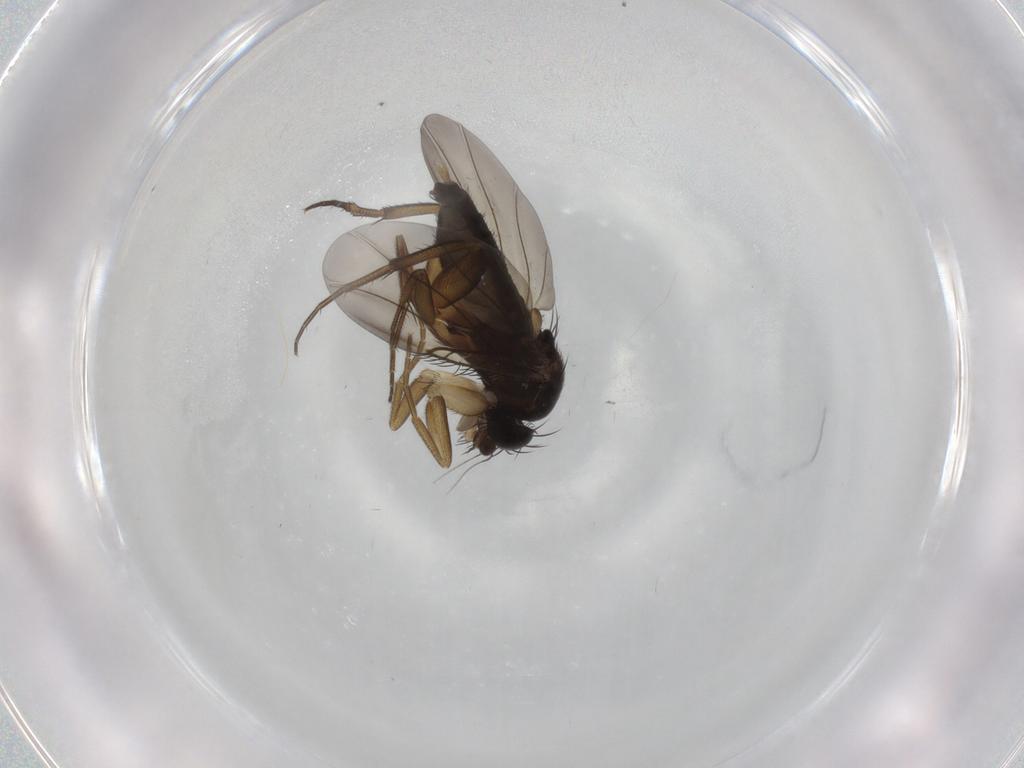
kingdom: Animalia
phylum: Arthropoda
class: Insecta
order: Diptera
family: Phoridae
